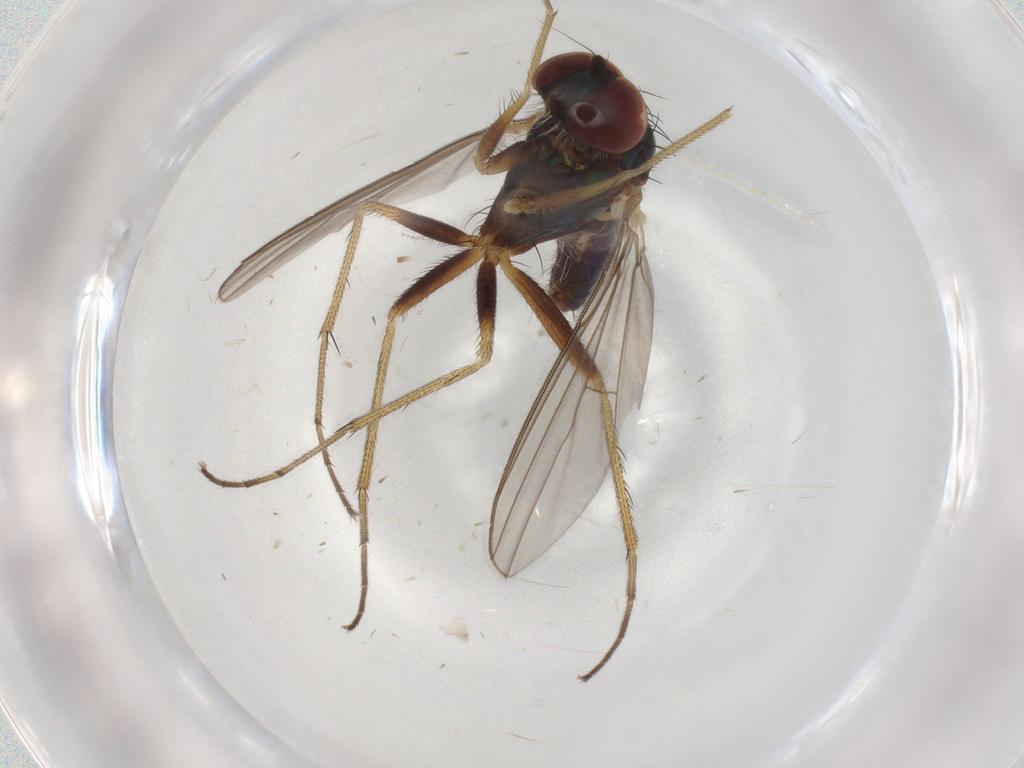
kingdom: Animalia
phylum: Arthropoda
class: Insecta
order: Diptera
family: Dolichopodidae
